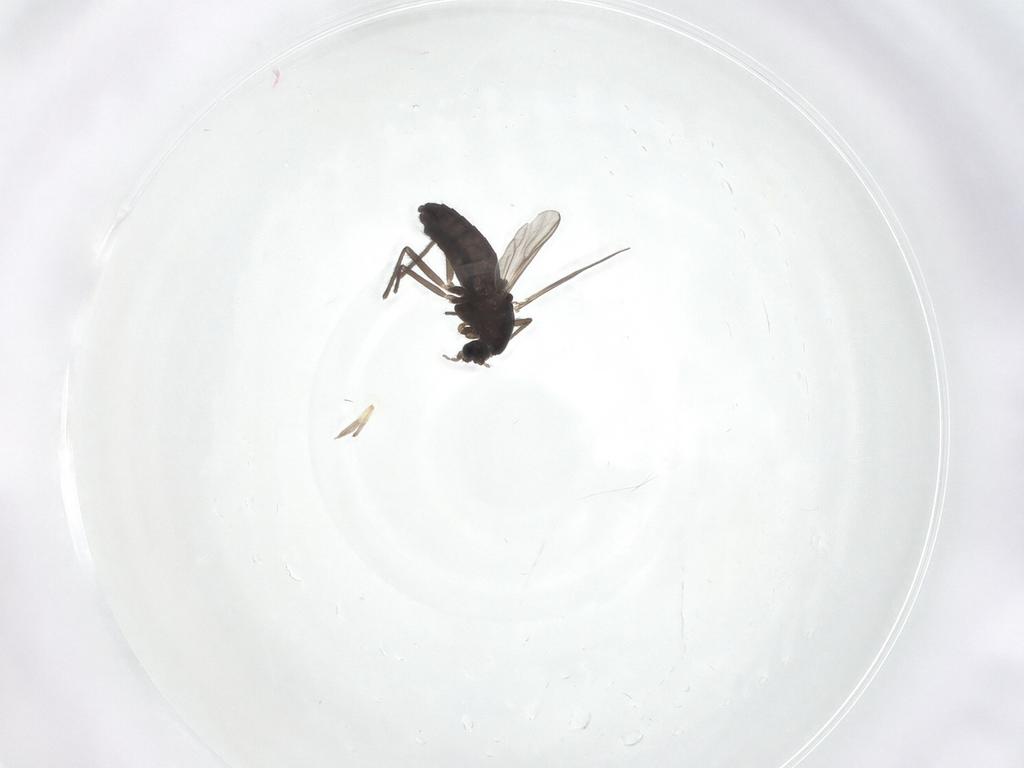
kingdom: Animalia
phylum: Arthropoda
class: Insecta
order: Diptera
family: Chironomidae
